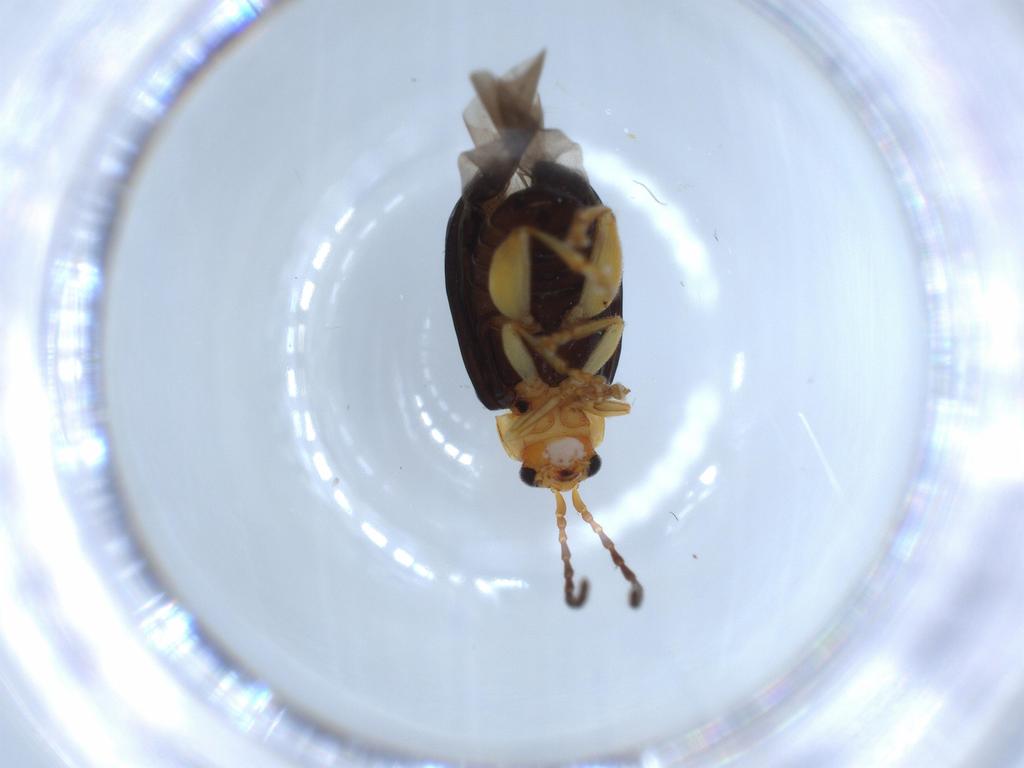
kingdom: Animalia
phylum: Arthropoda
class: Insecta
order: Coleoptera
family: Chrysomelidae
